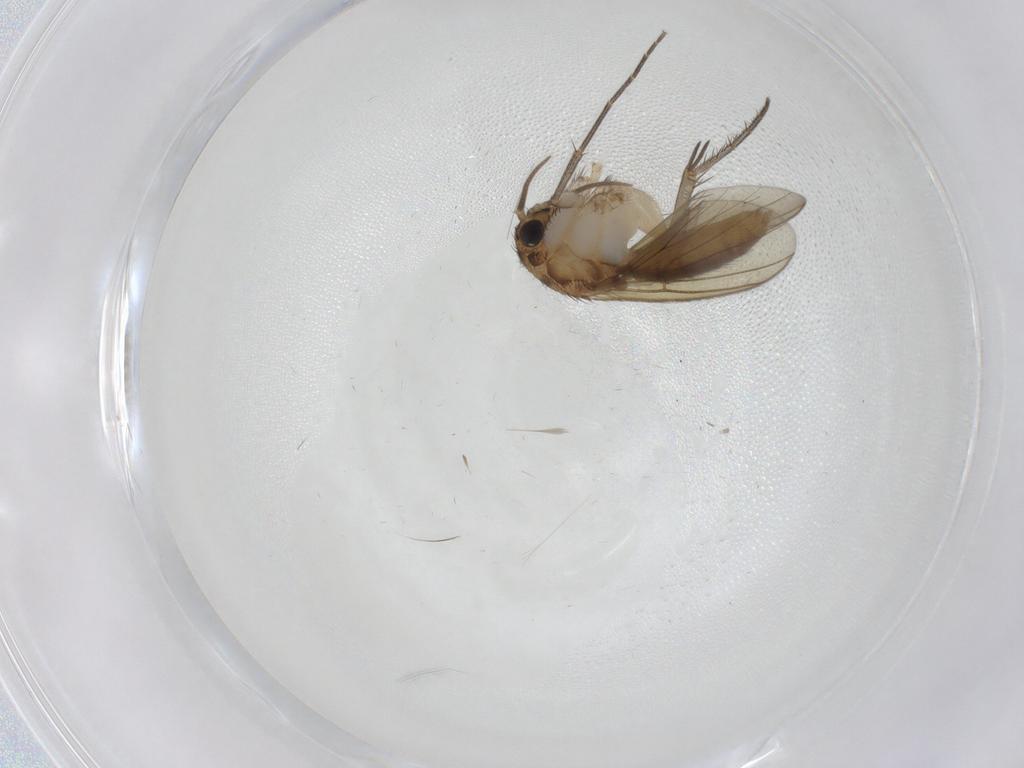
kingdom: Animalia
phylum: Arthropoda
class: Insecta
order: Diptera
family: Mycetophilidae
